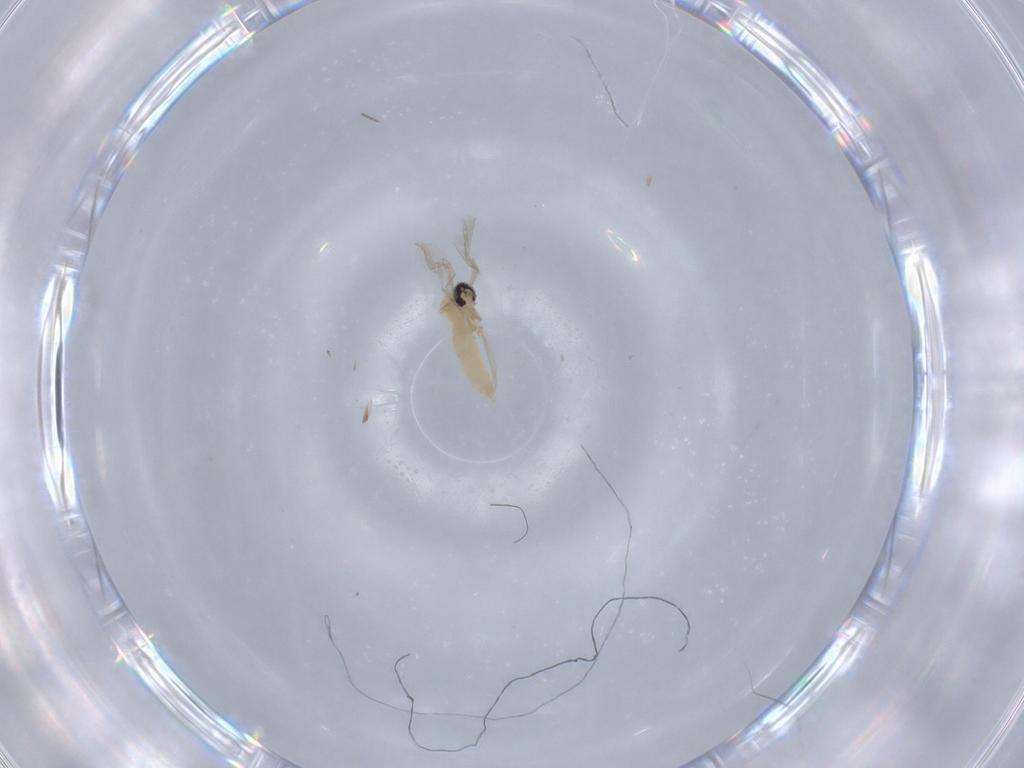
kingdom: Animalia
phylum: Arthropoda
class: Insecta
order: Diptera
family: Cecidomyiidae
